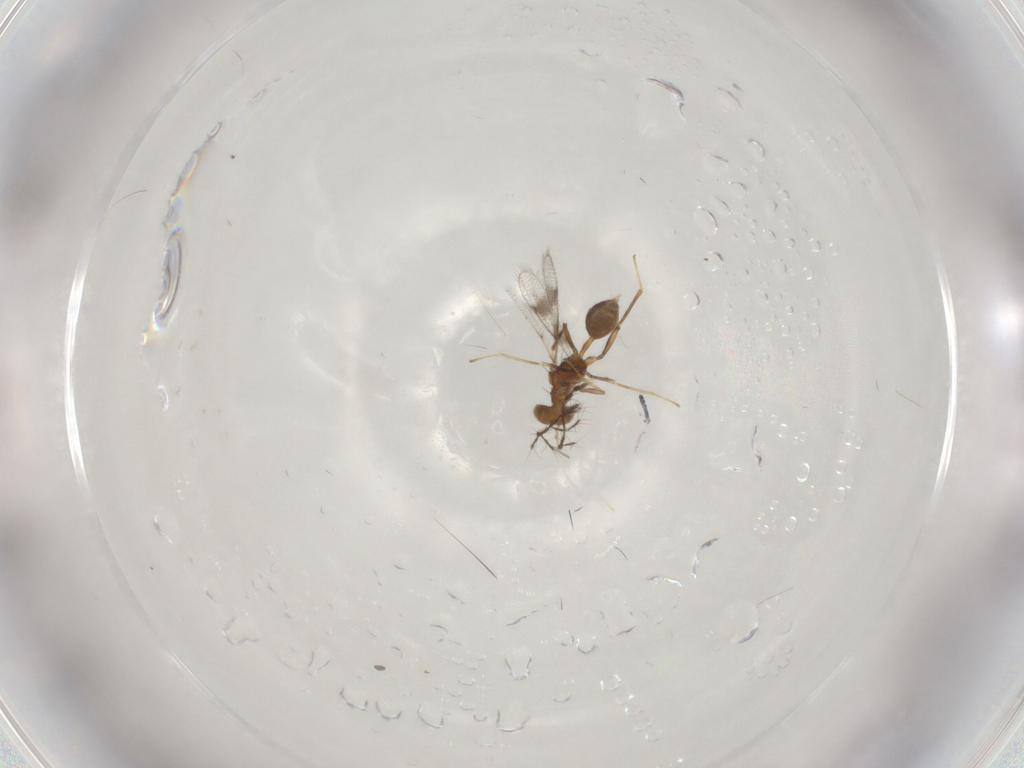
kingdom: Animalia
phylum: Arthropoda
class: Insecta
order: Hymenoptera
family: Eulophidae
